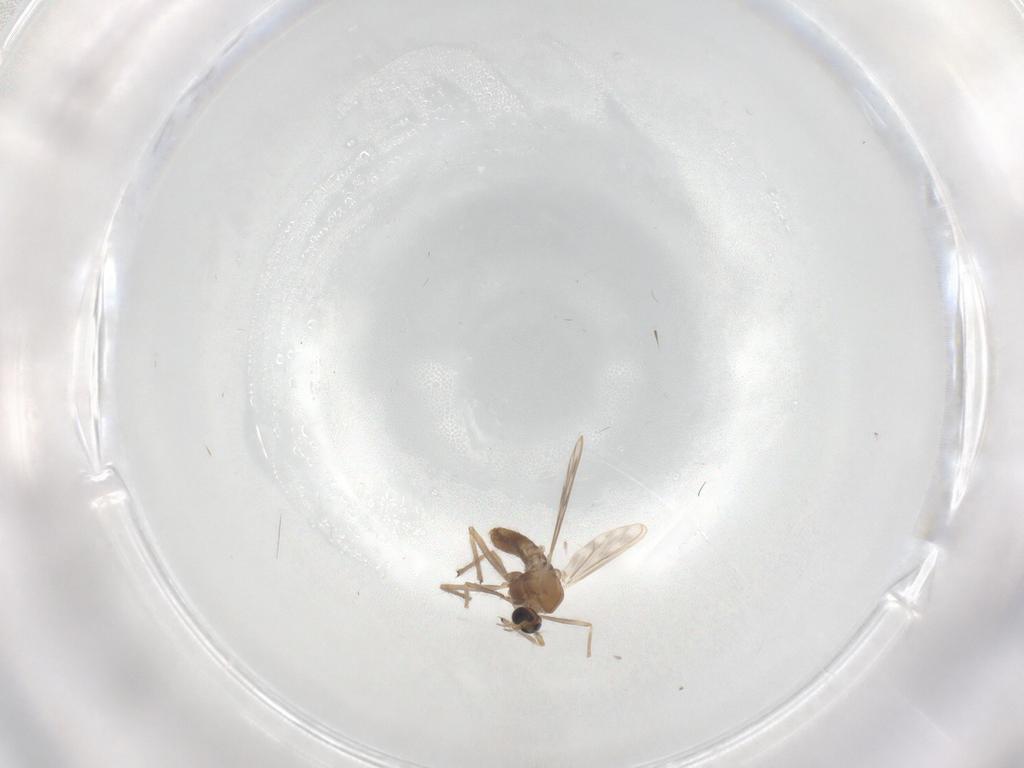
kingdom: Animalia
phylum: Arthropoda
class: Insecta
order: Diptera
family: Chironomidae
